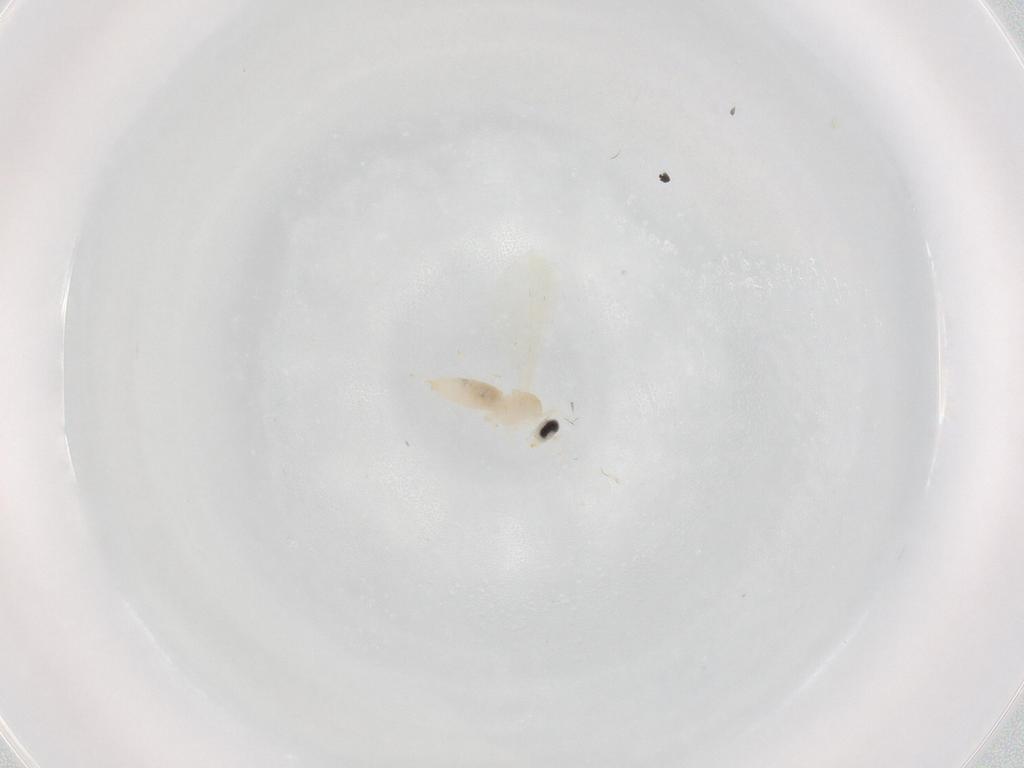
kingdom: Animalia
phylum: Arthropoda
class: Insecta
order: Diptera
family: Cecidomyiidae
